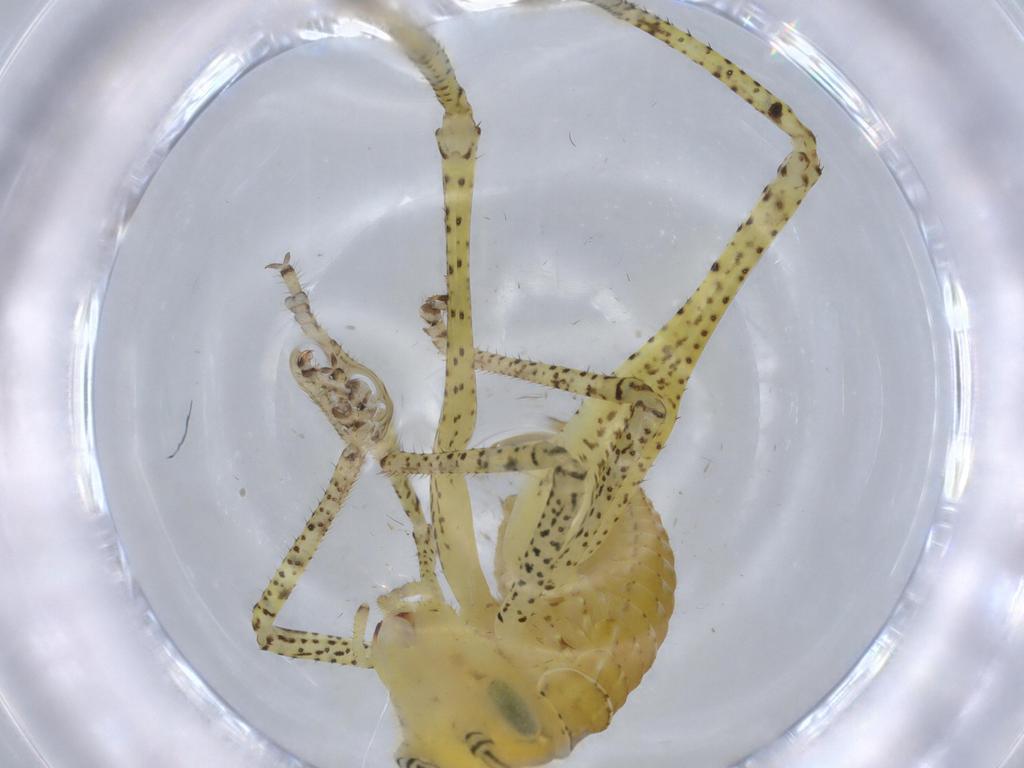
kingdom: Animalia
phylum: Arthropoda
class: Insecta
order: Orthoptera
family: Tettigoniidae
